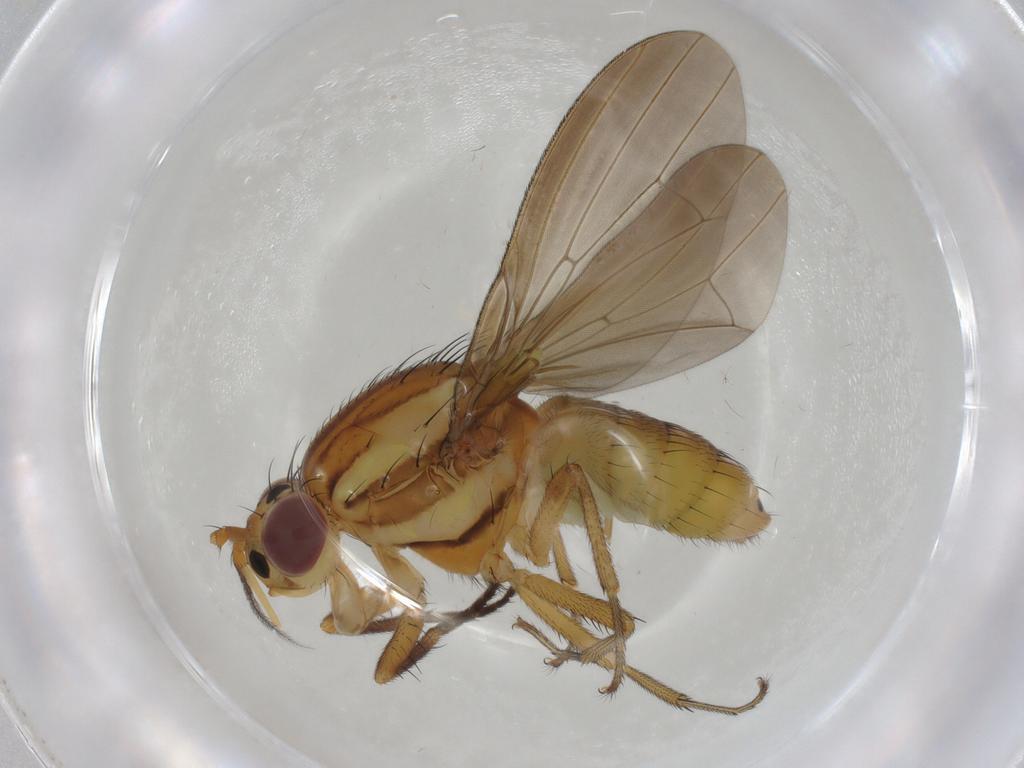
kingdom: Animalia
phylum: Arthropoda
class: Insecta
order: Diptera
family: Lauxaniidae
